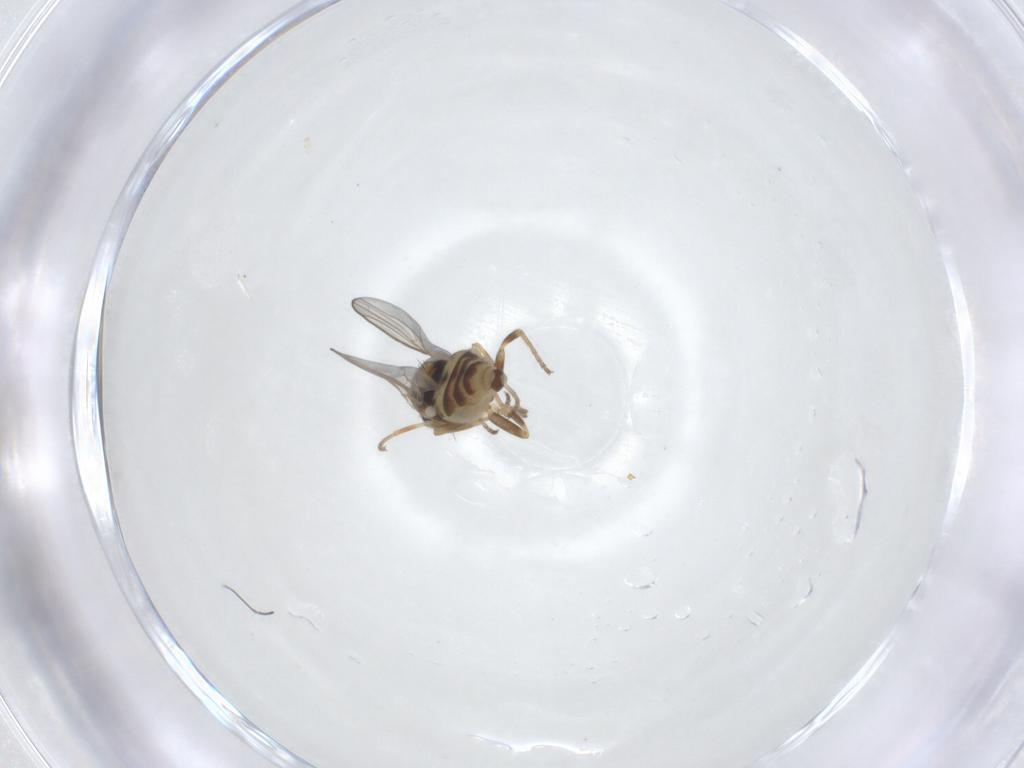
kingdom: Animalia
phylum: Arthropoda
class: Insecta
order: Diptera
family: Chloropidae
